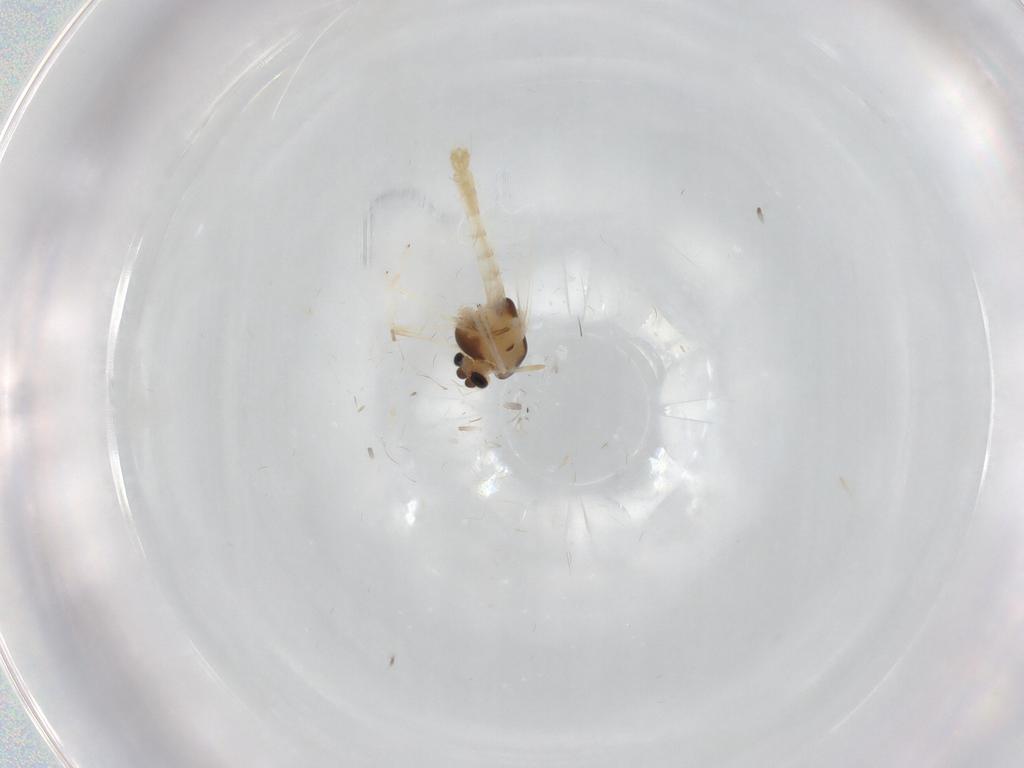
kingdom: Animalia
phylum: Arthropoda
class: Insecta
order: Diptera
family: Chironomidae
